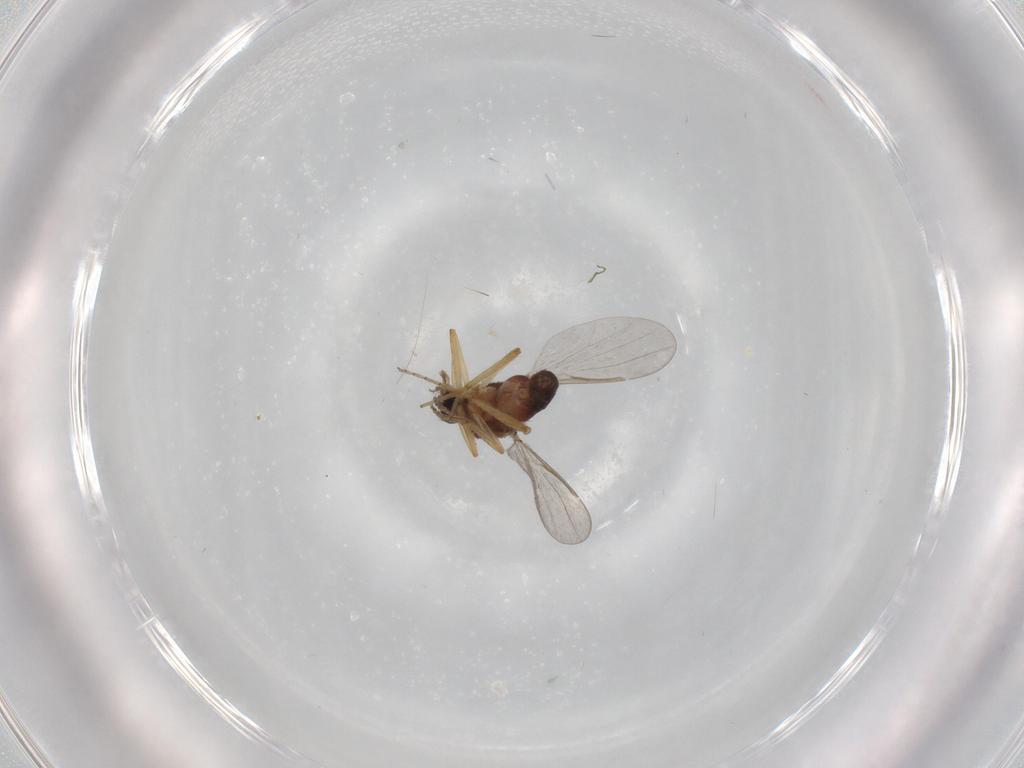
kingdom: Animalia
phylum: Arthropoda
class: Insecta
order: Diptera
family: Ceratopogonidae
